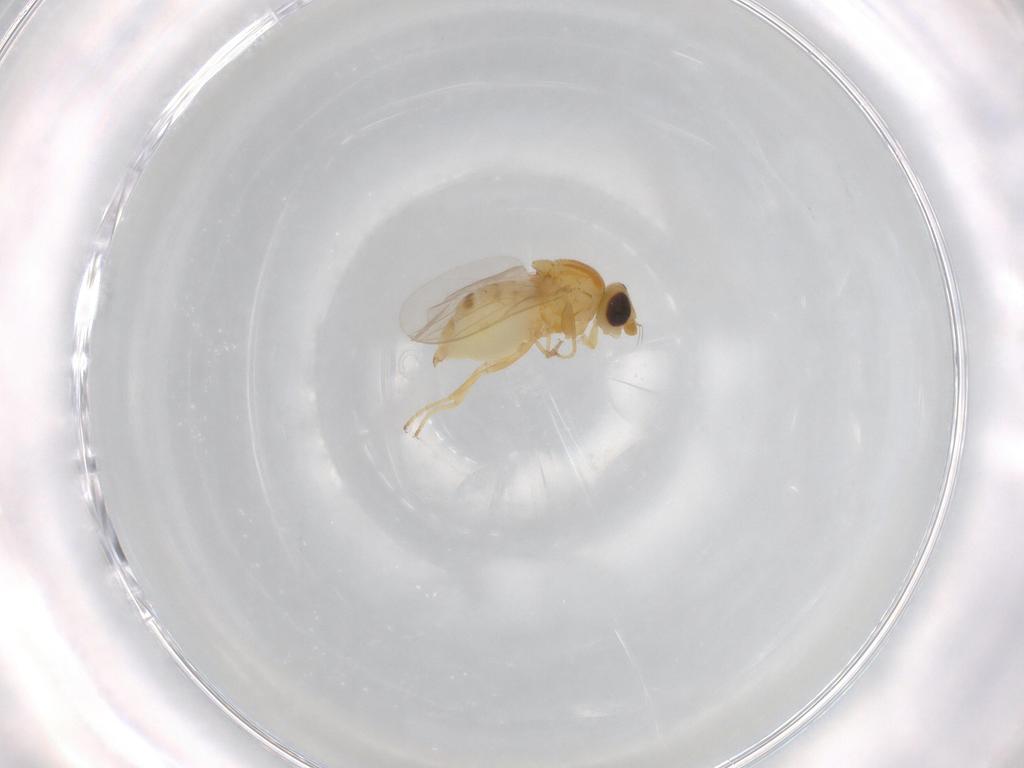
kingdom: Animalia
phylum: Arthropoda
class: Insecta
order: Diptera
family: Chloropidae
